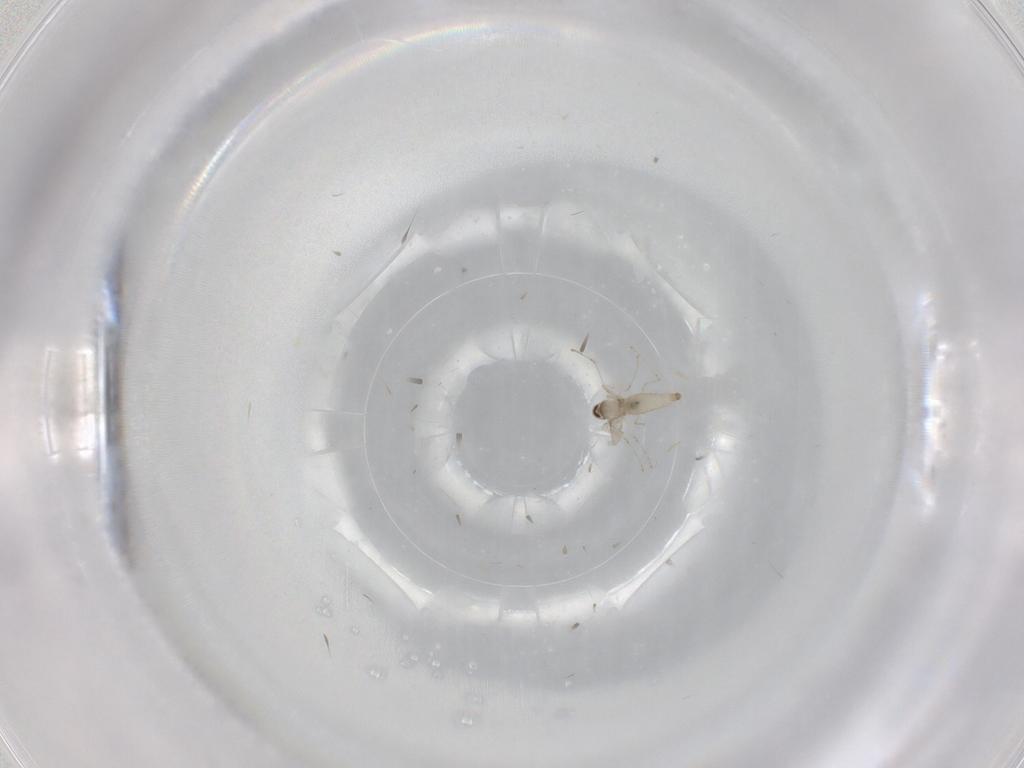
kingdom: Animalia
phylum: Arthropoda
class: Insecta
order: Diptera
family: Cecidomyiidae
